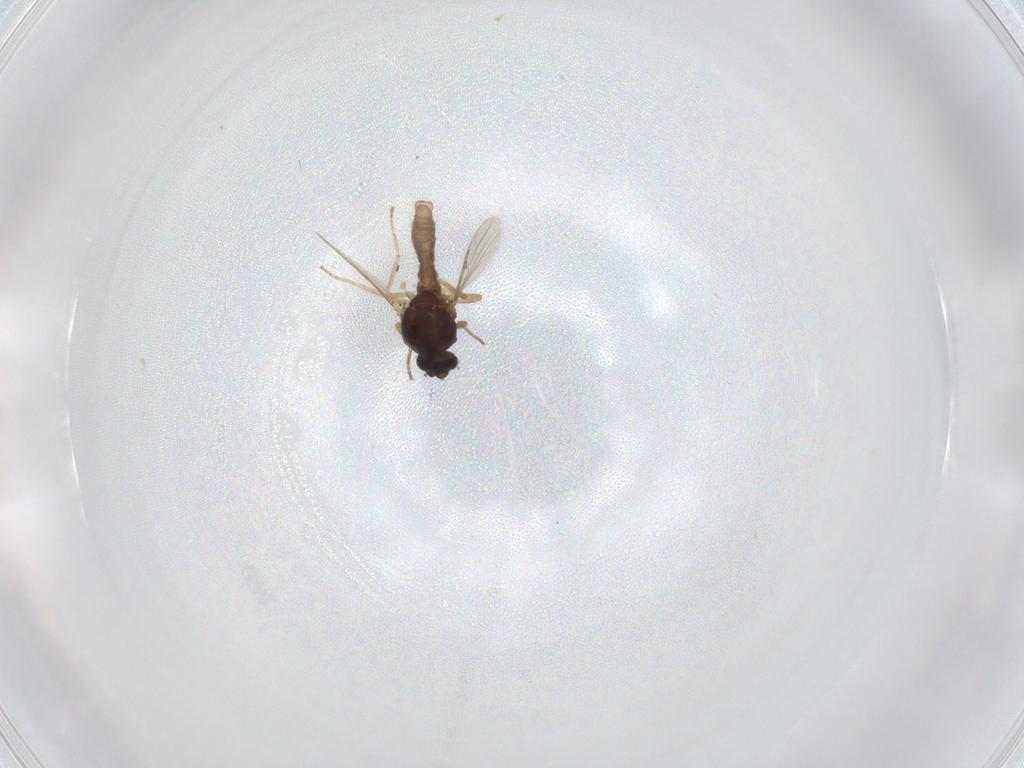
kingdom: Animalia
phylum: Arthropoda
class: Insecta
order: Diptera
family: Ceratopogonidae
